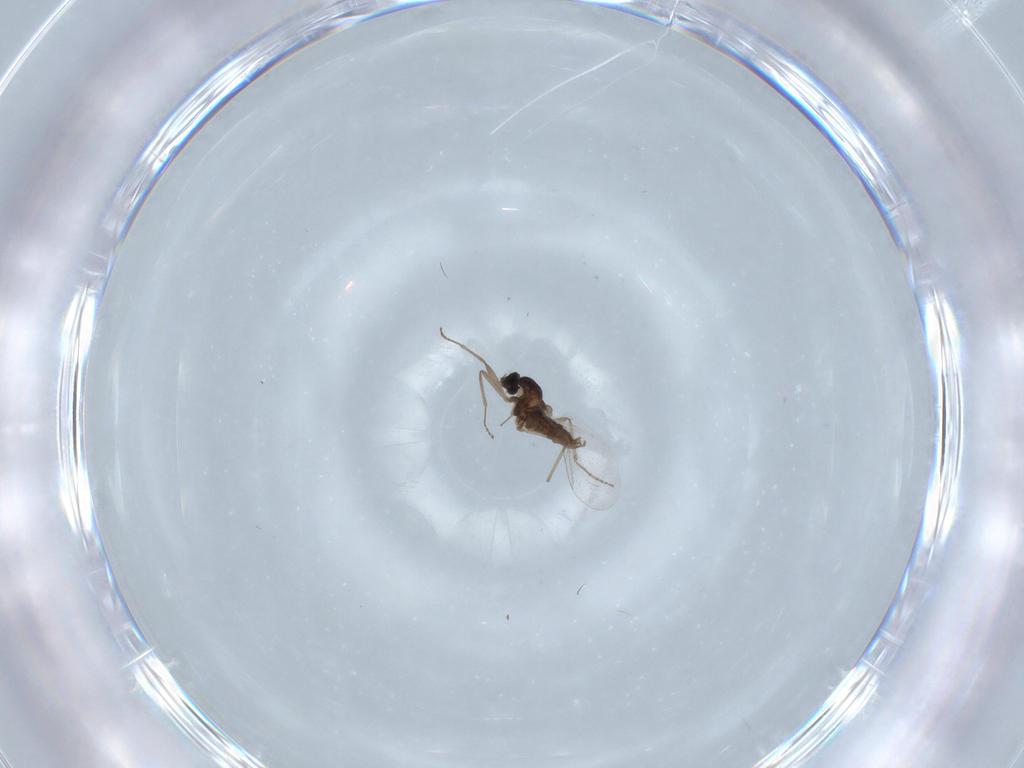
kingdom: Animalia
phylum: Arthropoda
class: Insecta
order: Diptera
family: Cecidomyiidae
